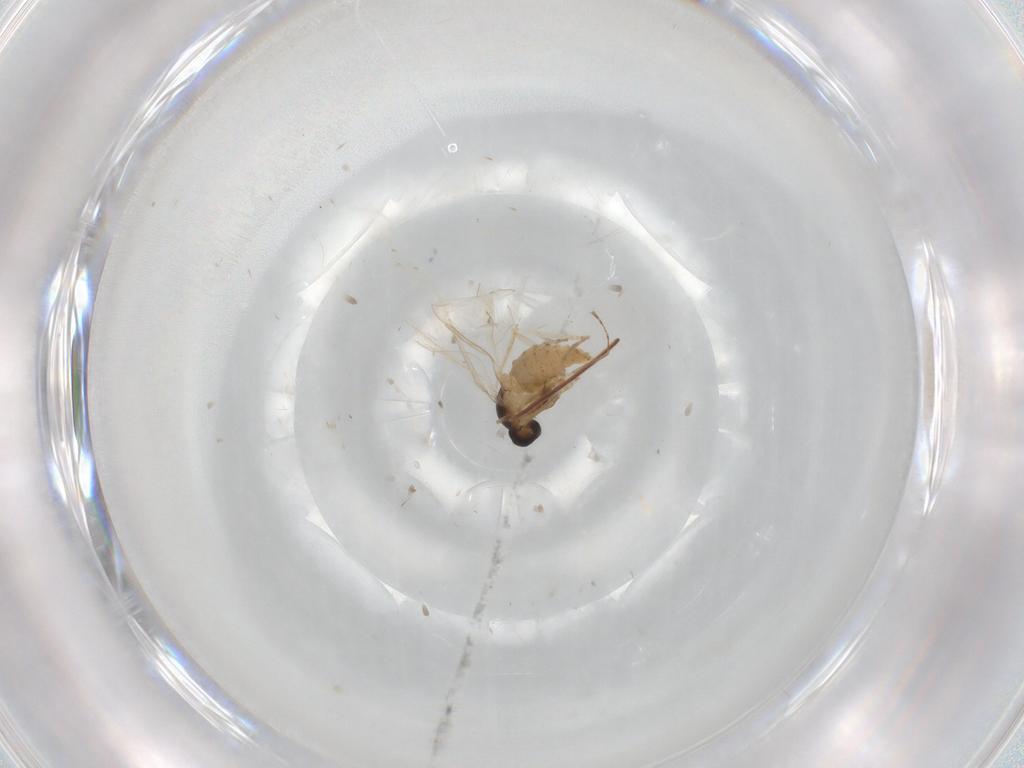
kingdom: Animalia
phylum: Arthropoda
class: Insecta
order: Diptera
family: Cecidomyiidae
